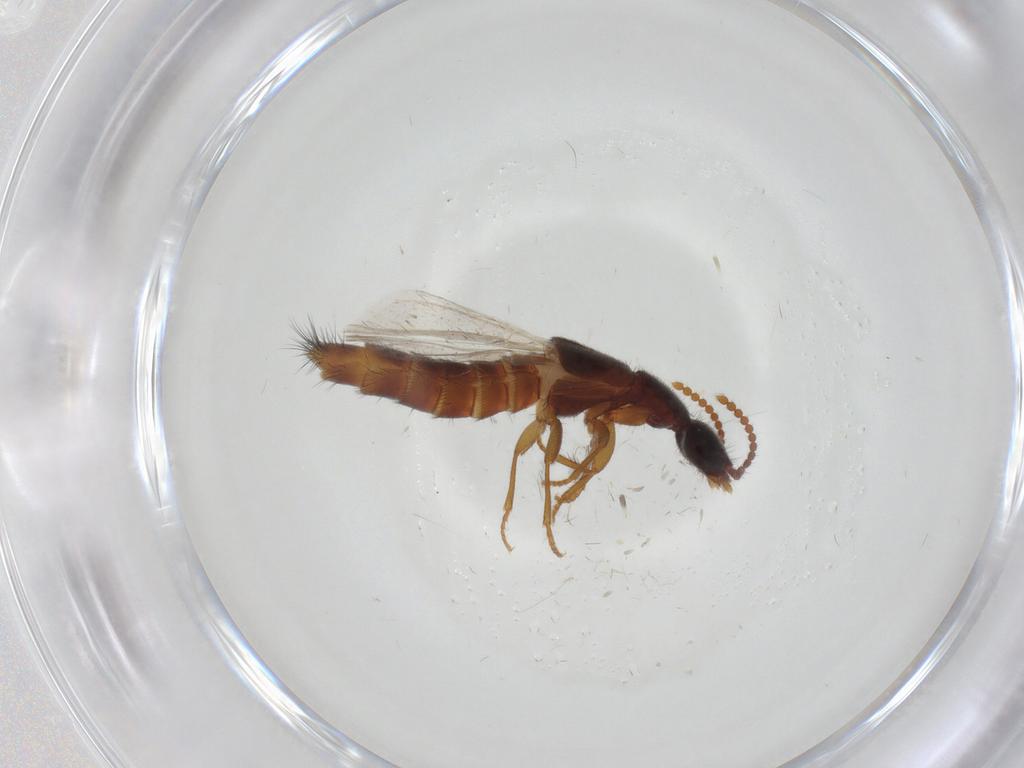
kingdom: Animalia
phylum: Arthropoda
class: Insecta
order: Coleoptera
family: Staphylinidae
